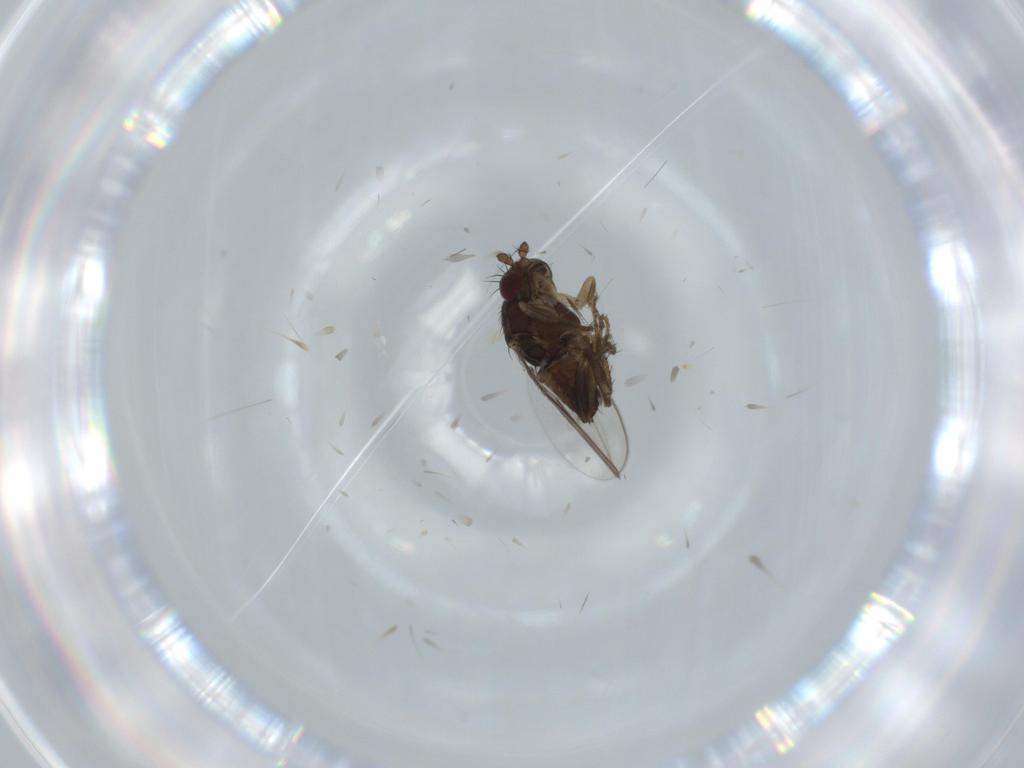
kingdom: Animalia
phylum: Arthropoda
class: Insecta
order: Diptera
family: Sphaeroceridae
